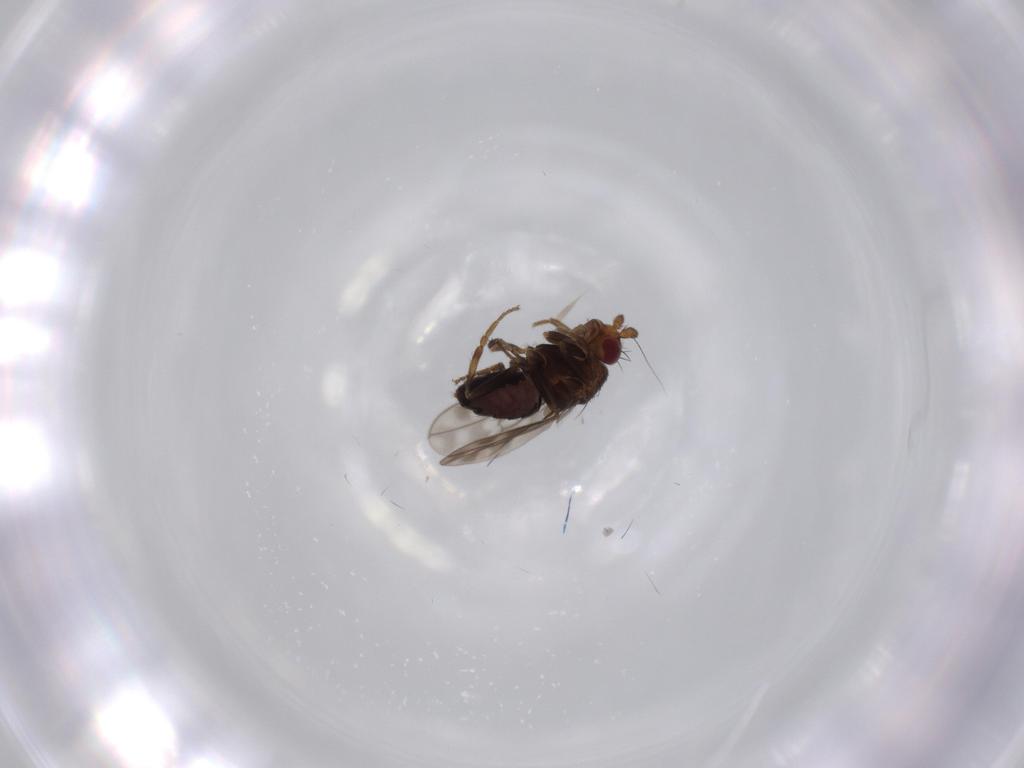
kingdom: Animalia
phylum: Arthropoda
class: Insecta
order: Diptera
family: Sphaeroceridae
